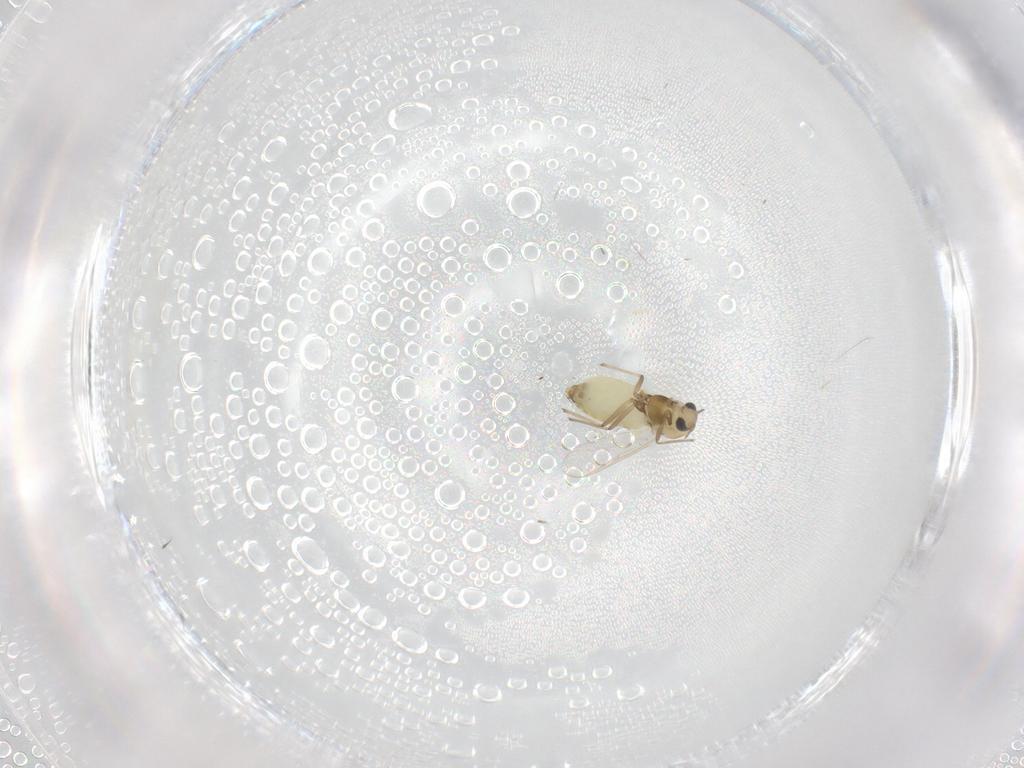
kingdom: Animalia
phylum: Arthropoda
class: Insecta
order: Diptera
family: Chironomidae
